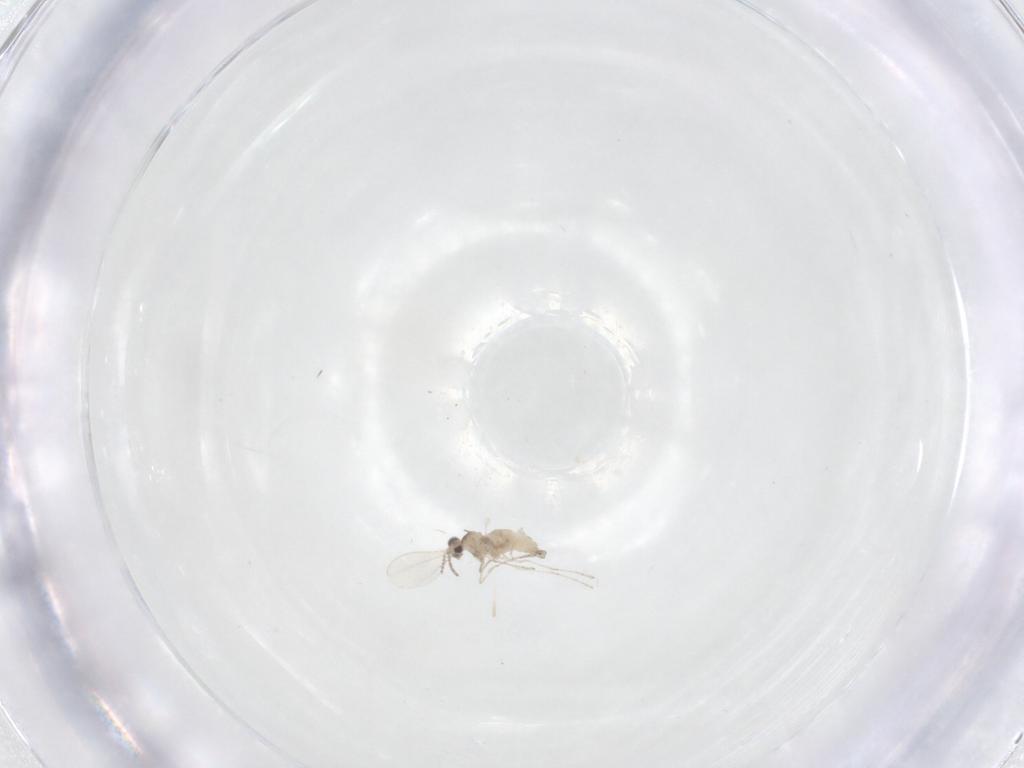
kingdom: Animalia
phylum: Arthropoda
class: Insecta
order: Diptera
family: Cecidomyiidae
